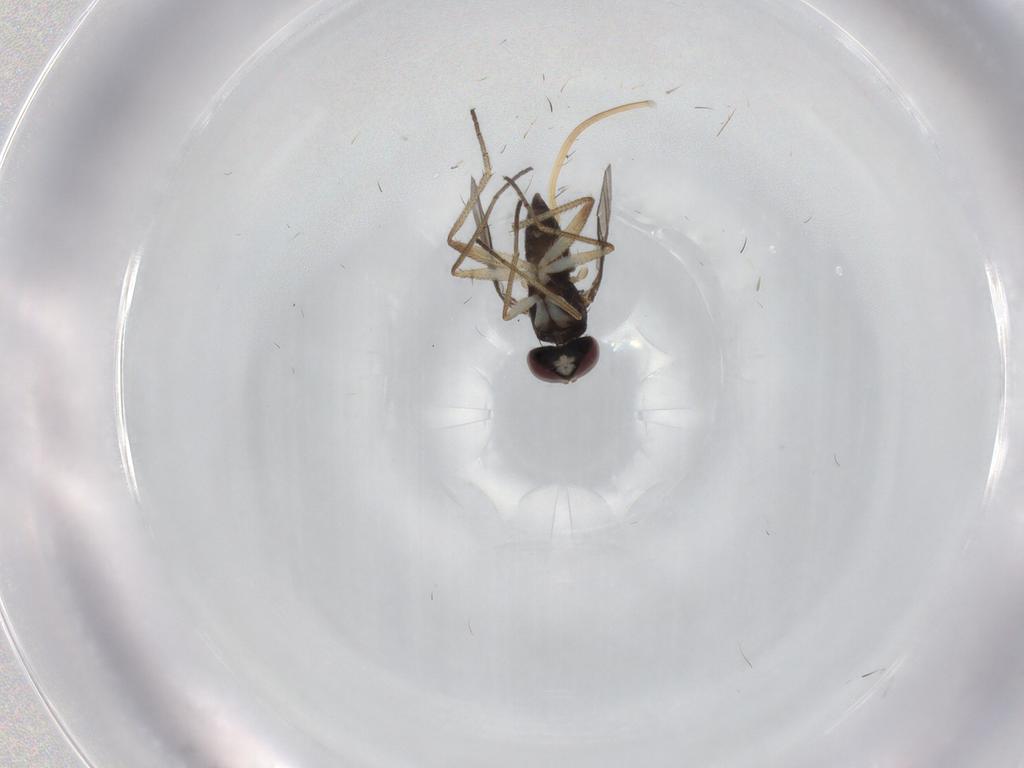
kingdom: Animalia
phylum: Arthropoda
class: Insecta
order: Diptera
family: Dolichopodidae
